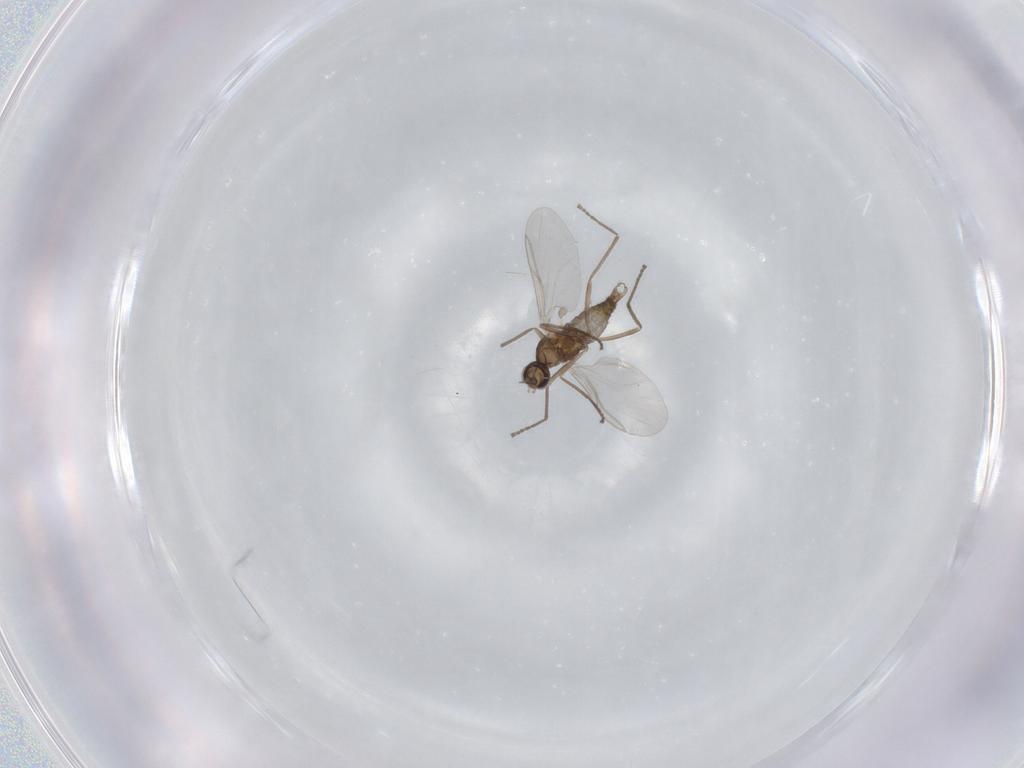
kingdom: Animalia
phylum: Arthropoda
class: Insecta
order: Diptera
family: Cecidomyiidae
